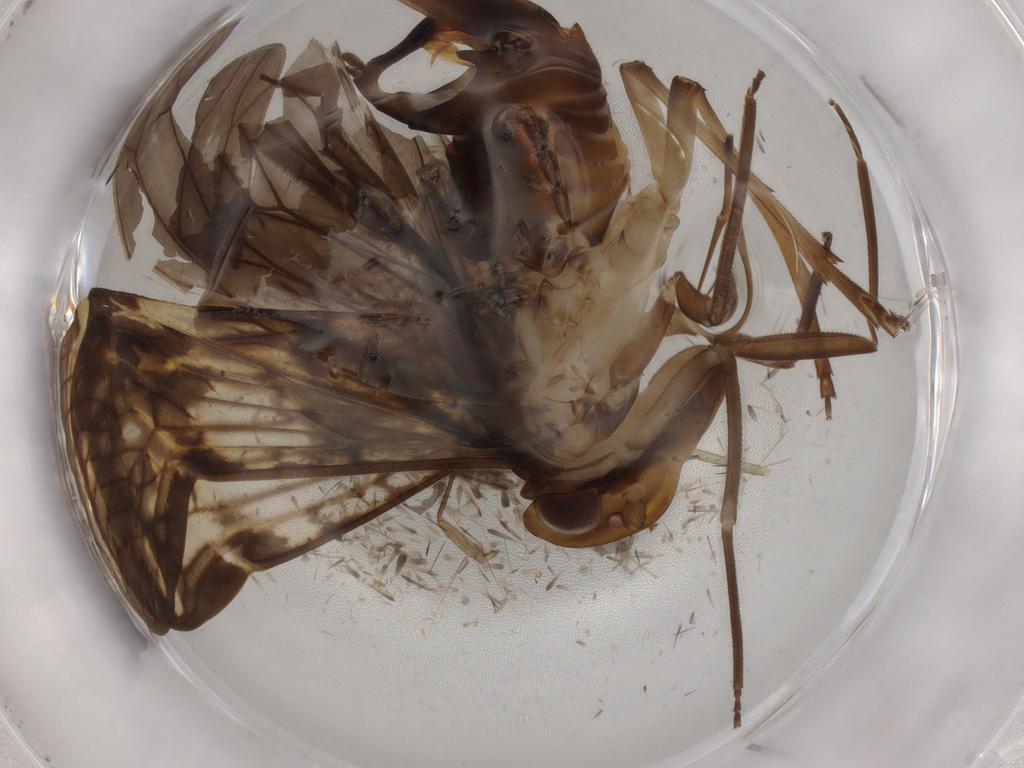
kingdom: Animalia
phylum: Arthropoda
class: Insecta
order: Hemiptera
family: Cixiidae
